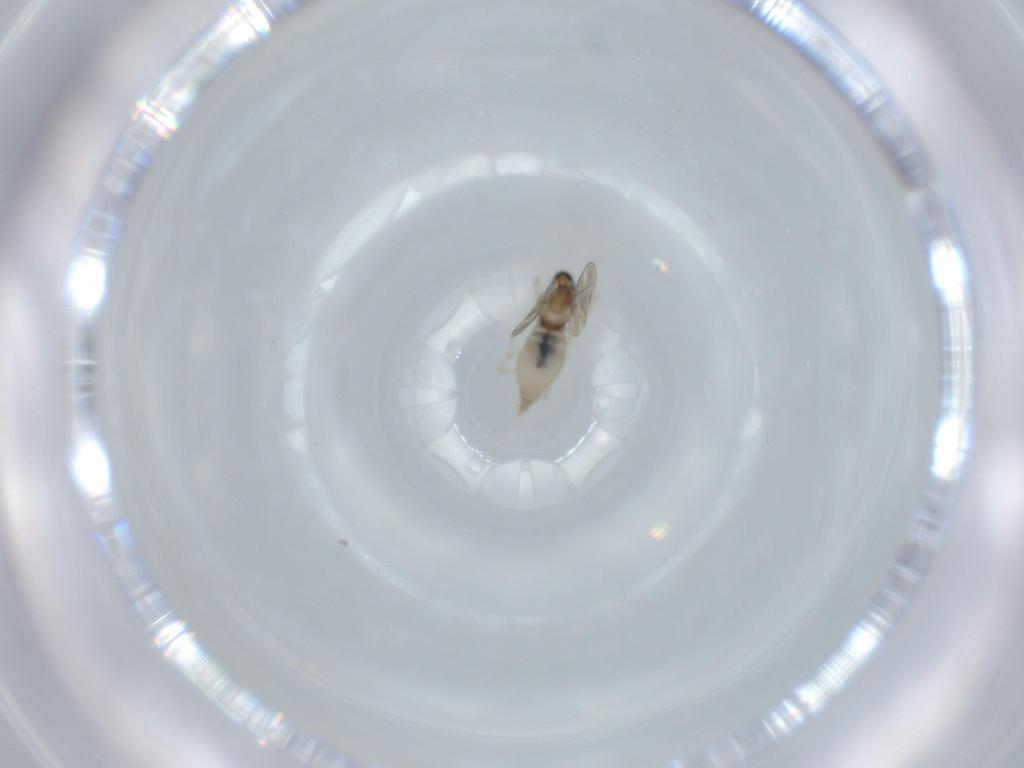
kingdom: Animalia
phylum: Arthropoda
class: Insecta
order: Diptera
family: Cecidomyiidae
